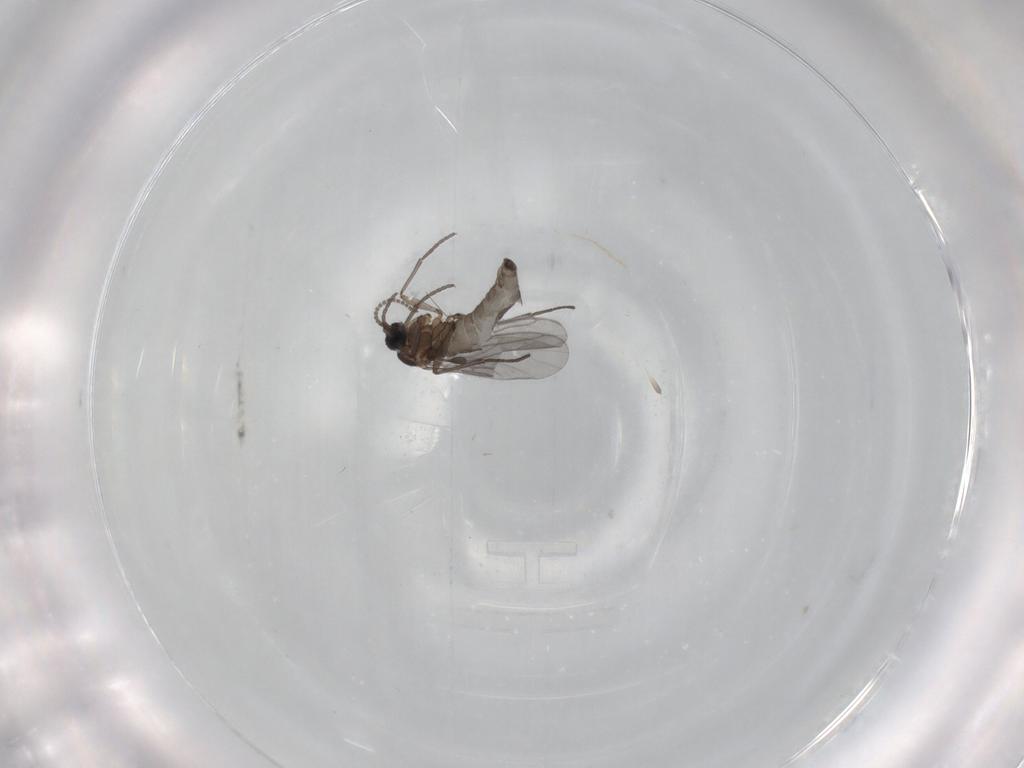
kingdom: Animalia
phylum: Arthropoda
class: Insecta
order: Diptera
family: Sciaridae
